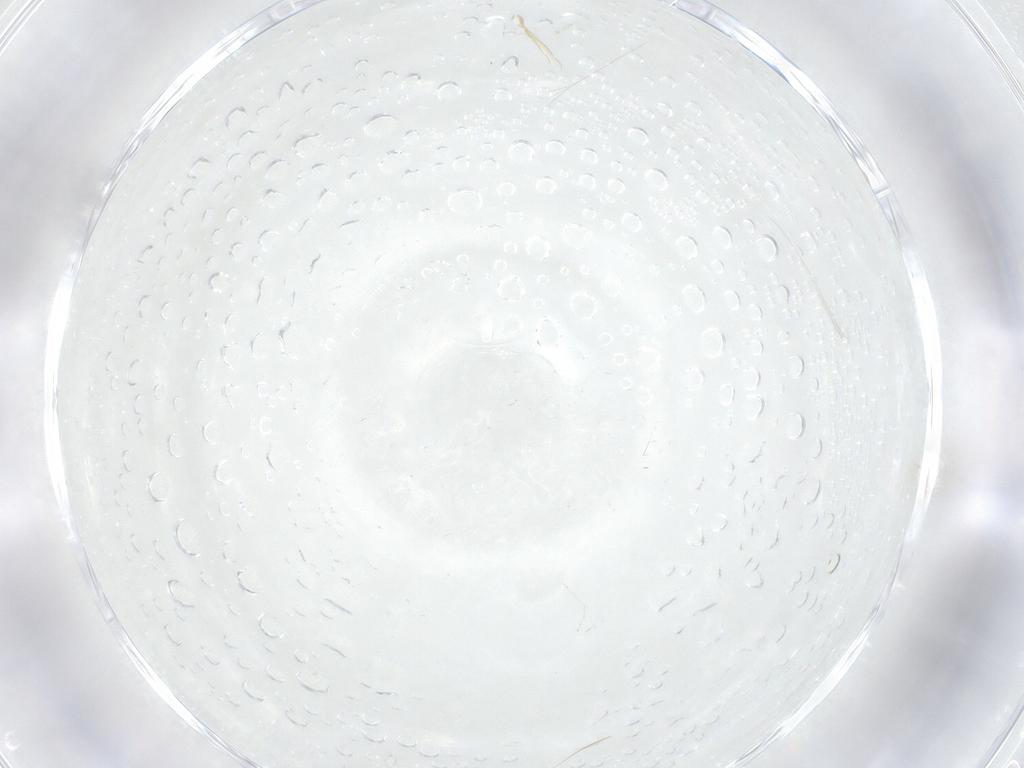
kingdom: Animalia
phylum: Arthropoda
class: Insecta
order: Diptera
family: Cecidomyiidae
